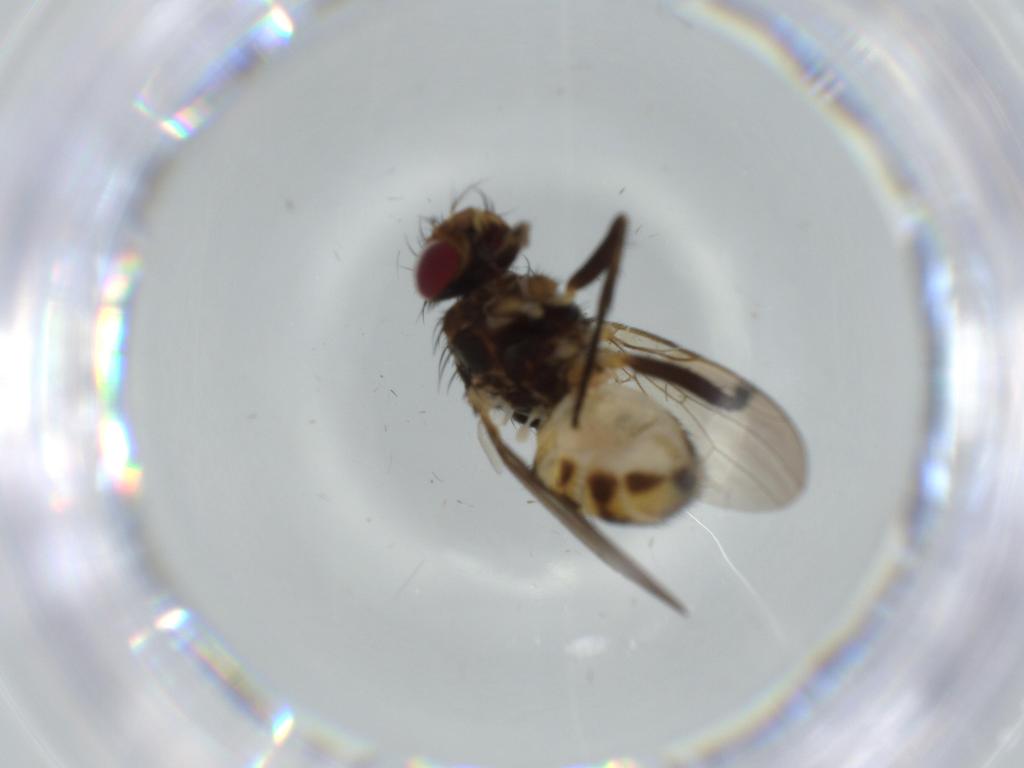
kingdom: Animalia
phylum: Arthropoda
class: Insecta
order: Diptera
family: Anthomyiidae
